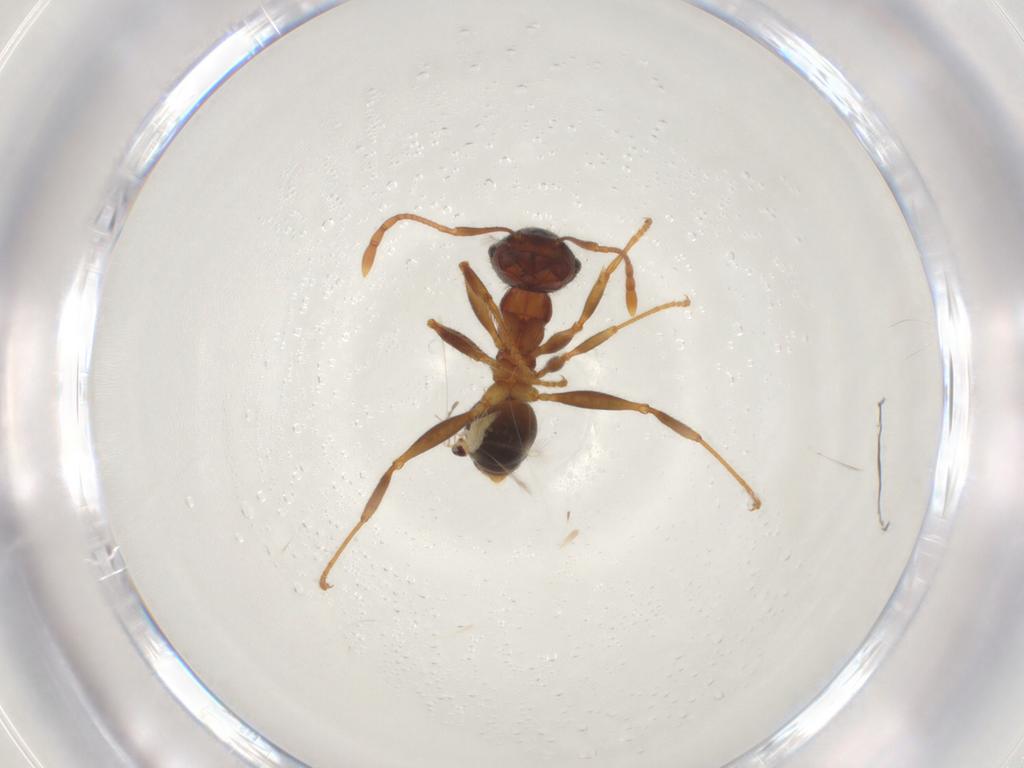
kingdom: Animalia
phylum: Arthropoda
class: Insecta
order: Hymenoptera
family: Mymaridae
